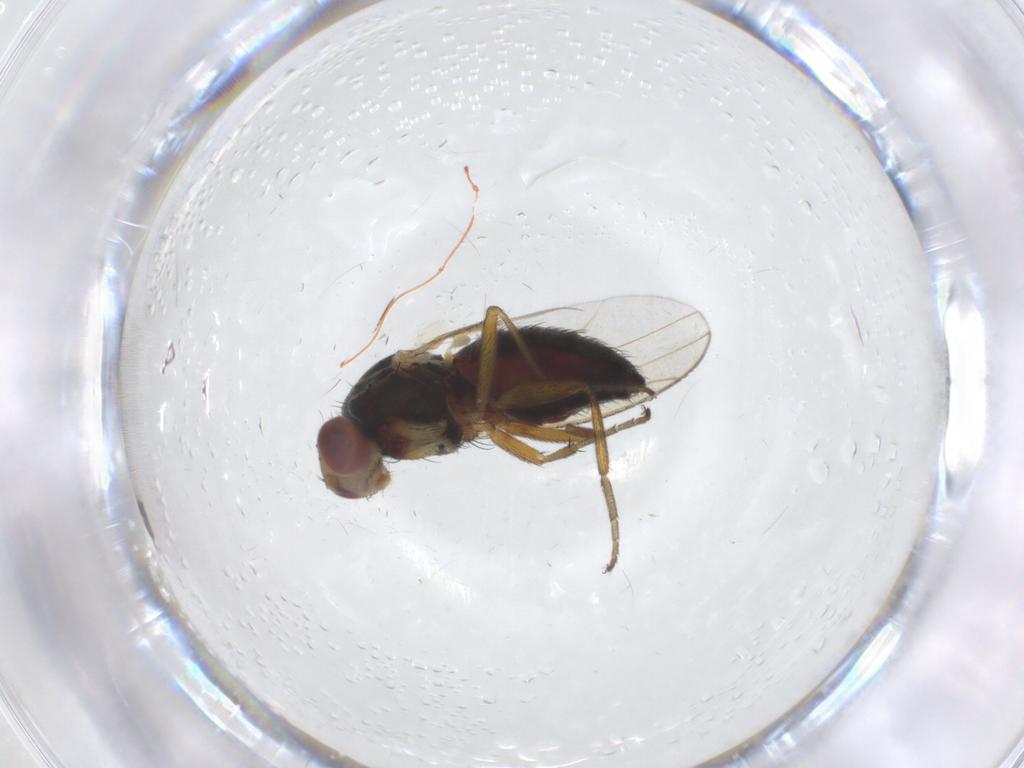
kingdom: Animalia
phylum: Arthropoda
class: Insecta
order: Diptera
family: Heleomyzidae
